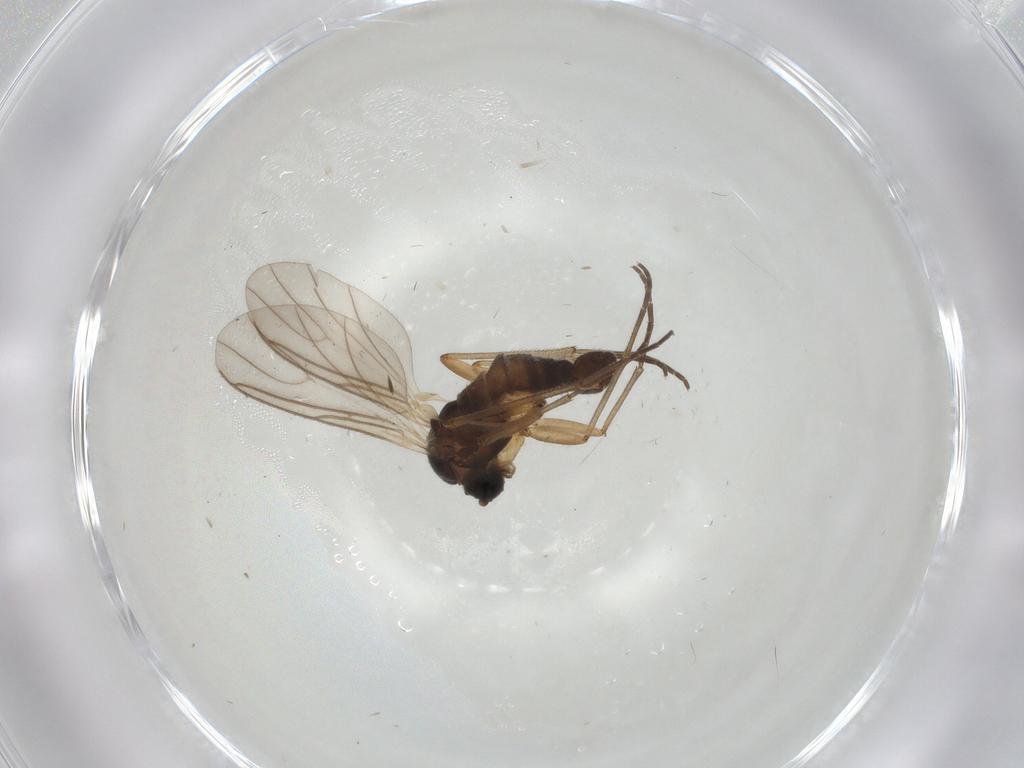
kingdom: Animalia
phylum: Arthropoda
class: Insecta
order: Diptera
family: Sciaridae
